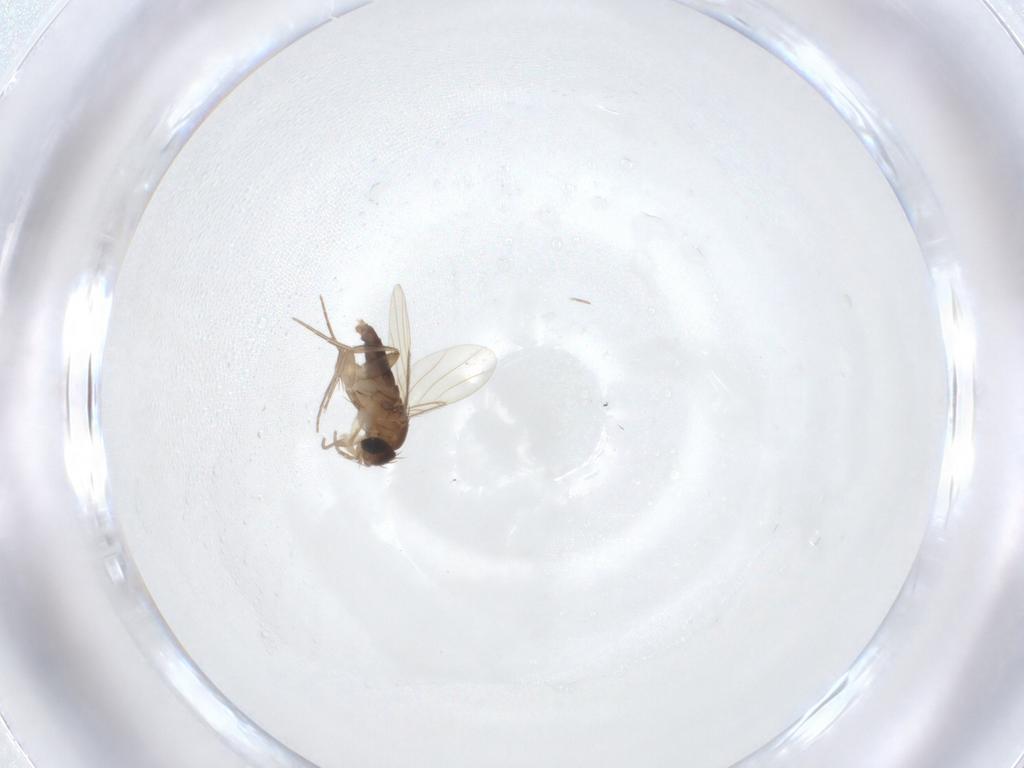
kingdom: Animalia
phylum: Arthropoda
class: Insecta
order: Diptera
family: Phoridae
